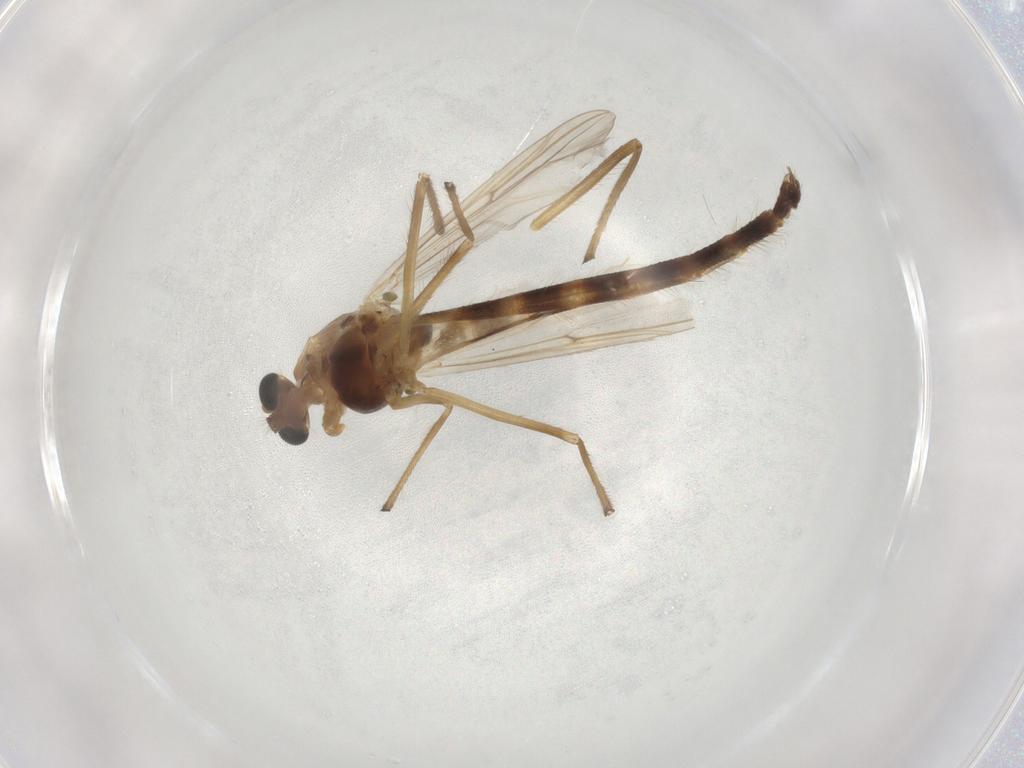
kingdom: Animalia
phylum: Arthropoda
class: Insecta
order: Diptera
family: Chironomidae
